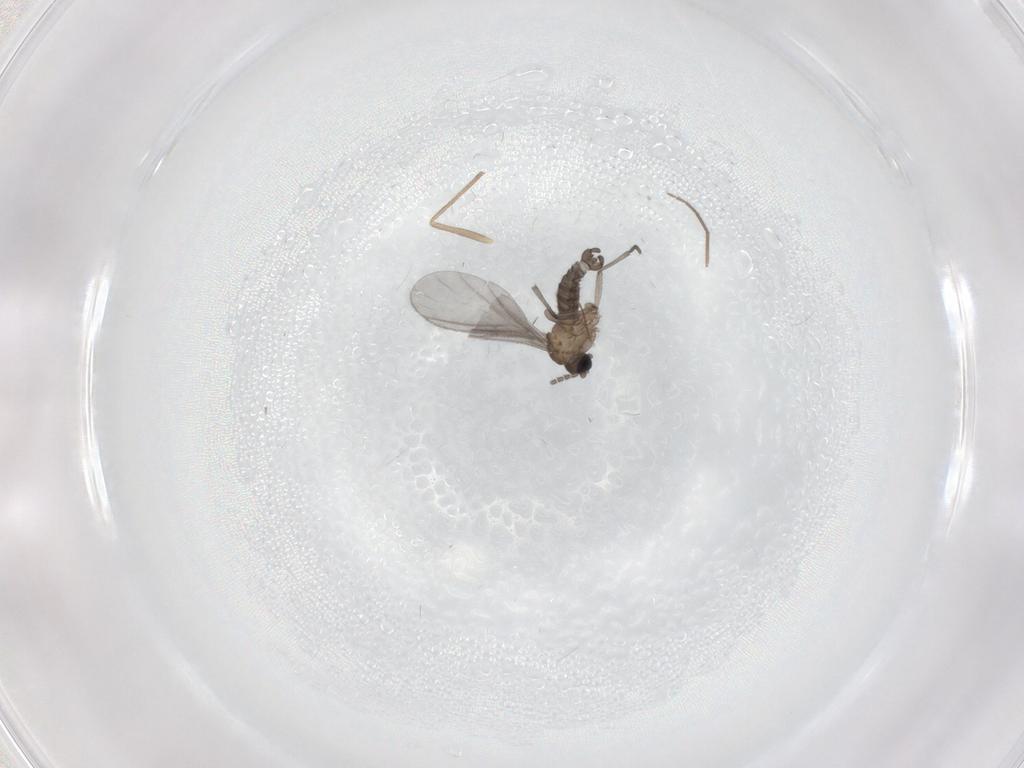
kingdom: Animalia
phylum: Arthropoda
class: Insecta
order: Diptera
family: Sciaridae
